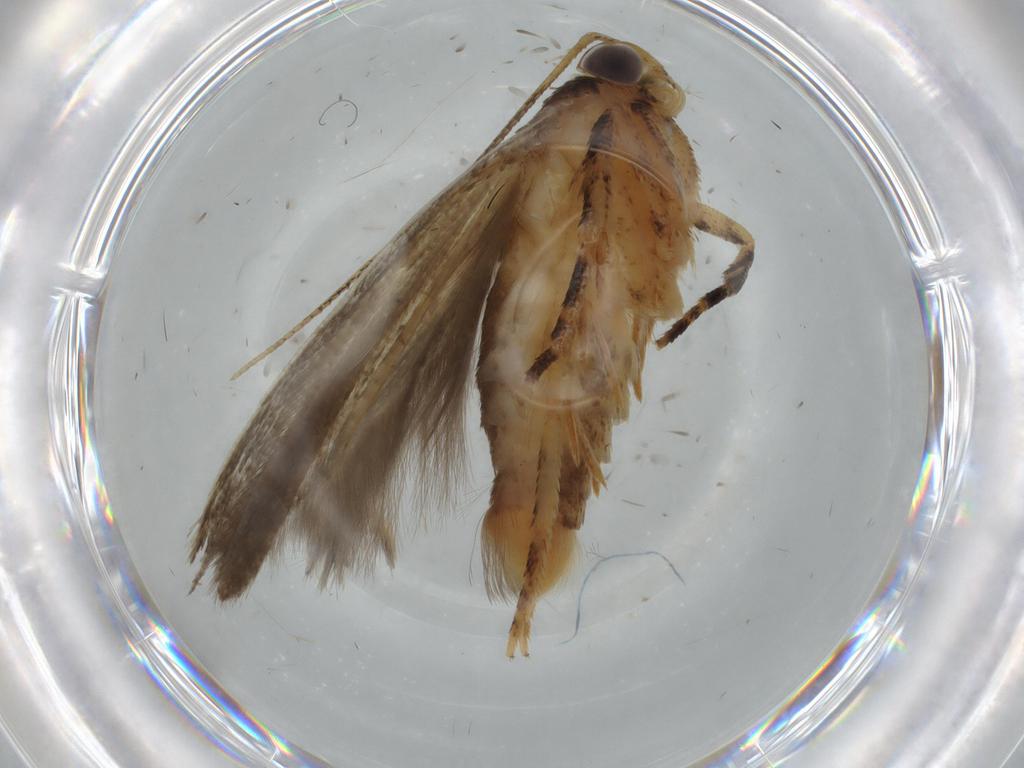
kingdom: Animalia
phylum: Arthropoda
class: Insecta
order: Lepidoptera
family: Gelechiidae
